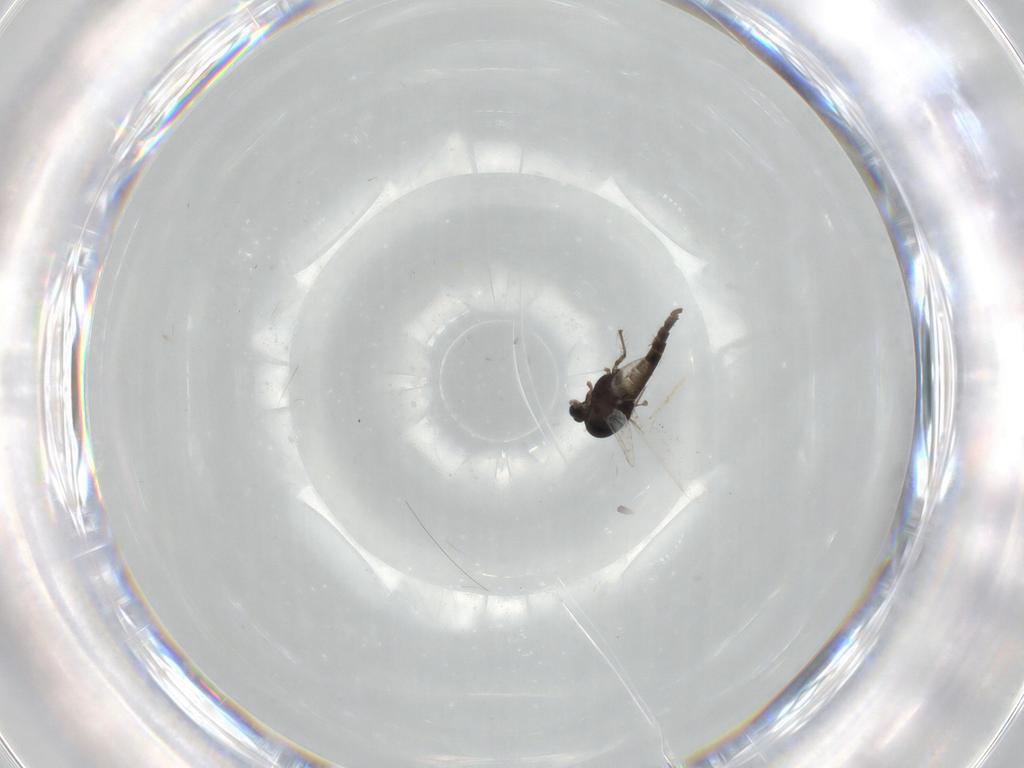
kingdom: Animalia
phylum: Arthropoda
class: Insecta
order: Diptera
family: Chironomidae
